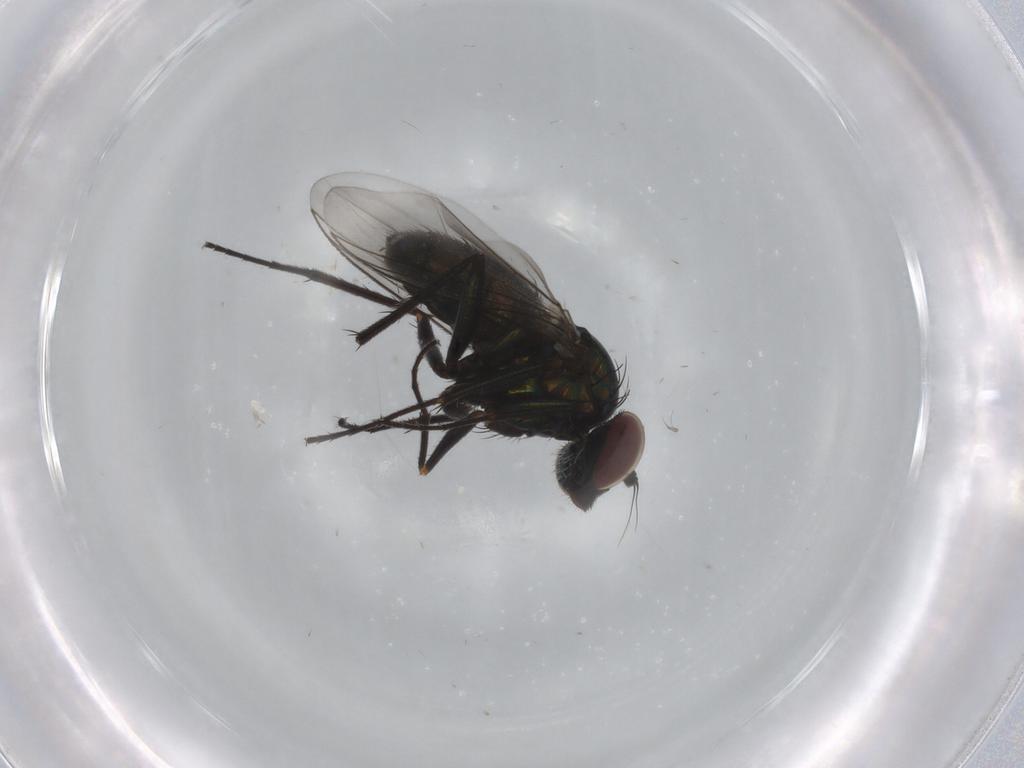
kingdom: Animalia
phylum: Arthropoda
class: Insecta
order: Diptera
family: Dolichopodidae
